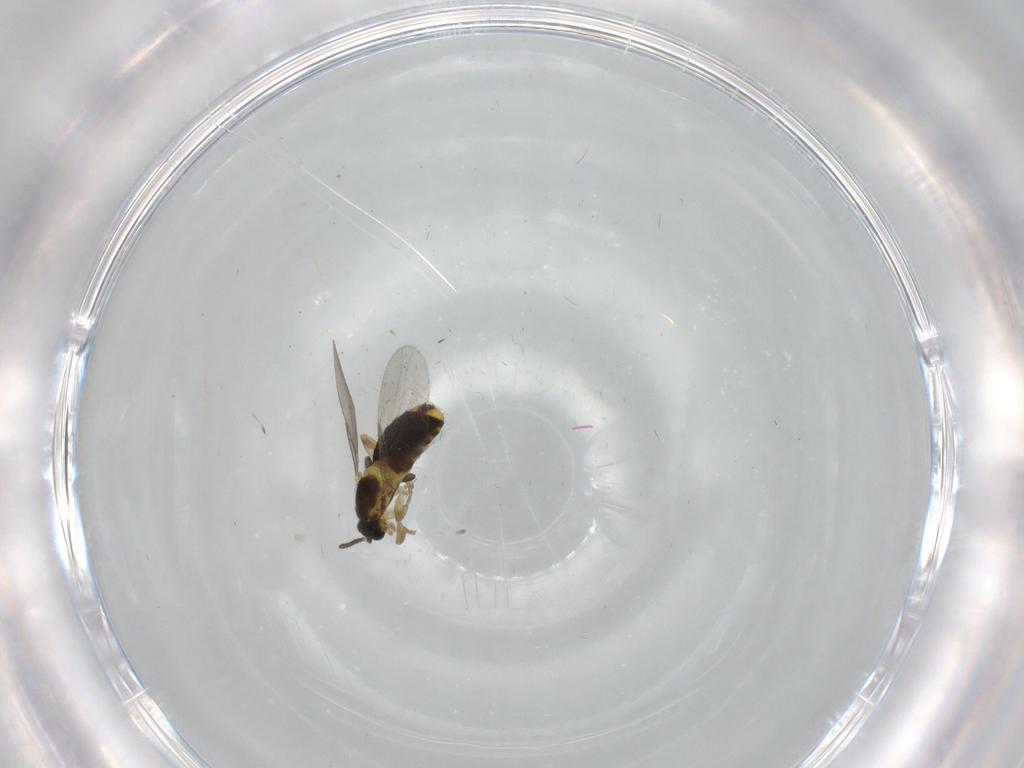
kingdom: Animalia
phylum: Arthropoda
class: Insecta
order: Diptera
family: Scatopsidae
